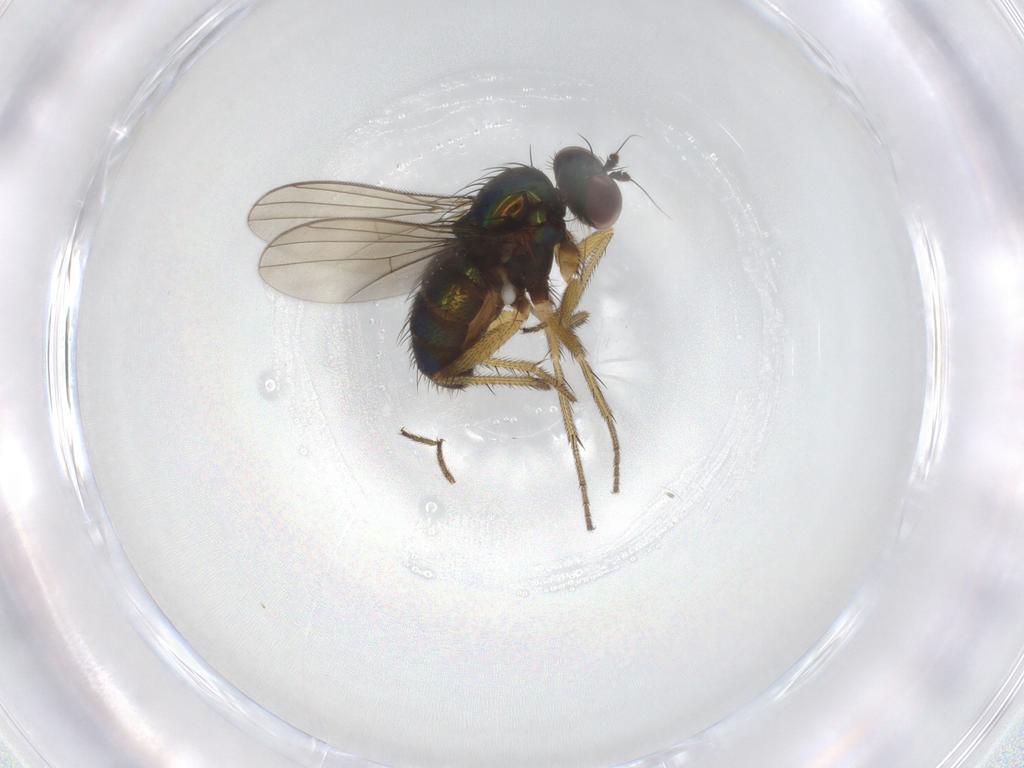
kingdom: Animalia
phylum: Arthropoda
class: Insecta
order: Diptera
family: Dolichopodidae
